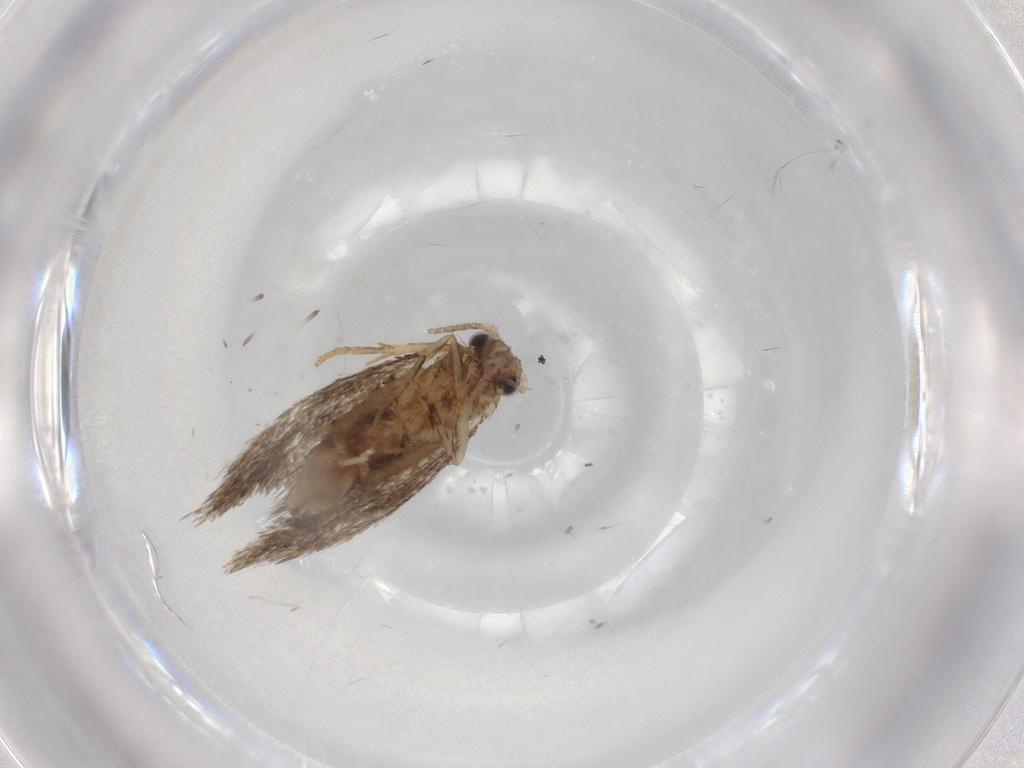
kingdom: Animalia
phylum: Arthropoda
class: Insecta
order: Lepidoptera
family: Tineidae
